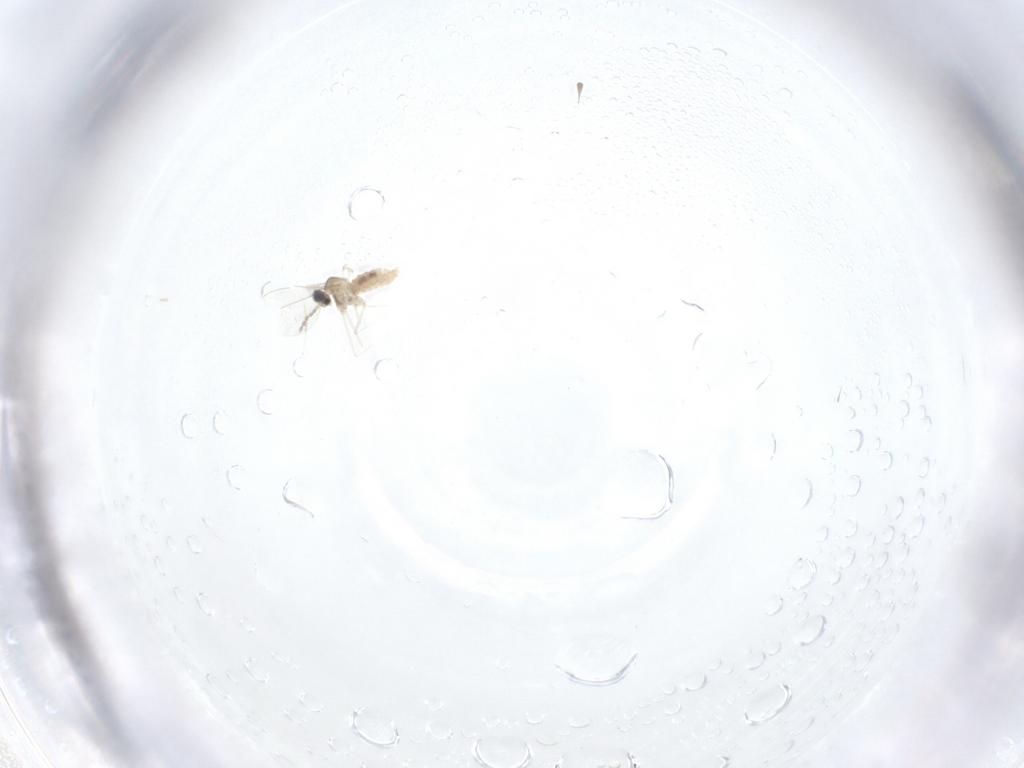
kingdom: Animalia
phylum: Arthropoda
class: Insecta
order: Diptera
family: Cecidomyiidae
